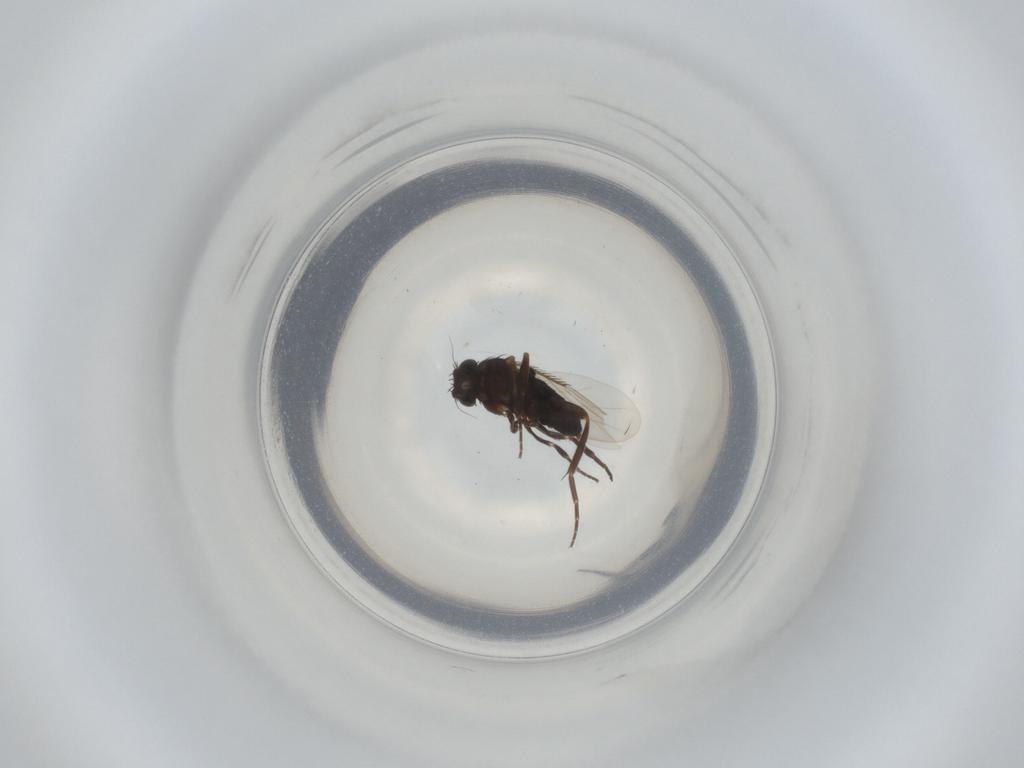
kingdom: Animalia
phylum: Arthropoda
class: Insecta
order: Diptera
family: Phoridae
